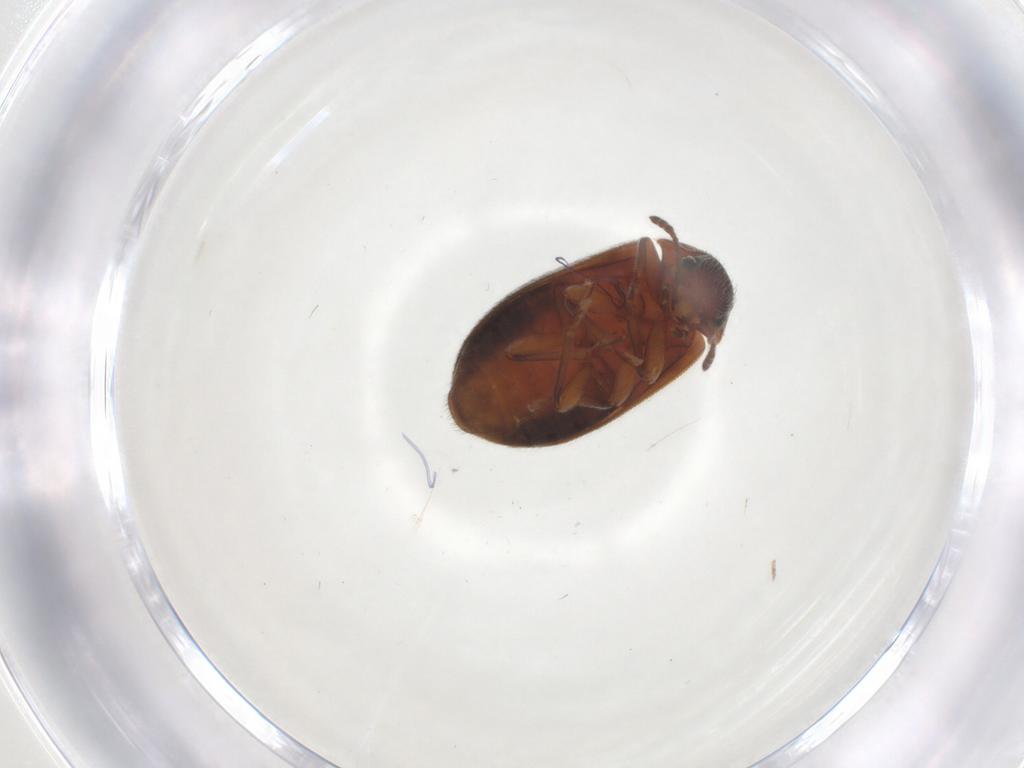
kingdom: Animalia
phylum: Arthropoda
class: Insecta
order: Coleoptera
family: Byturidae
